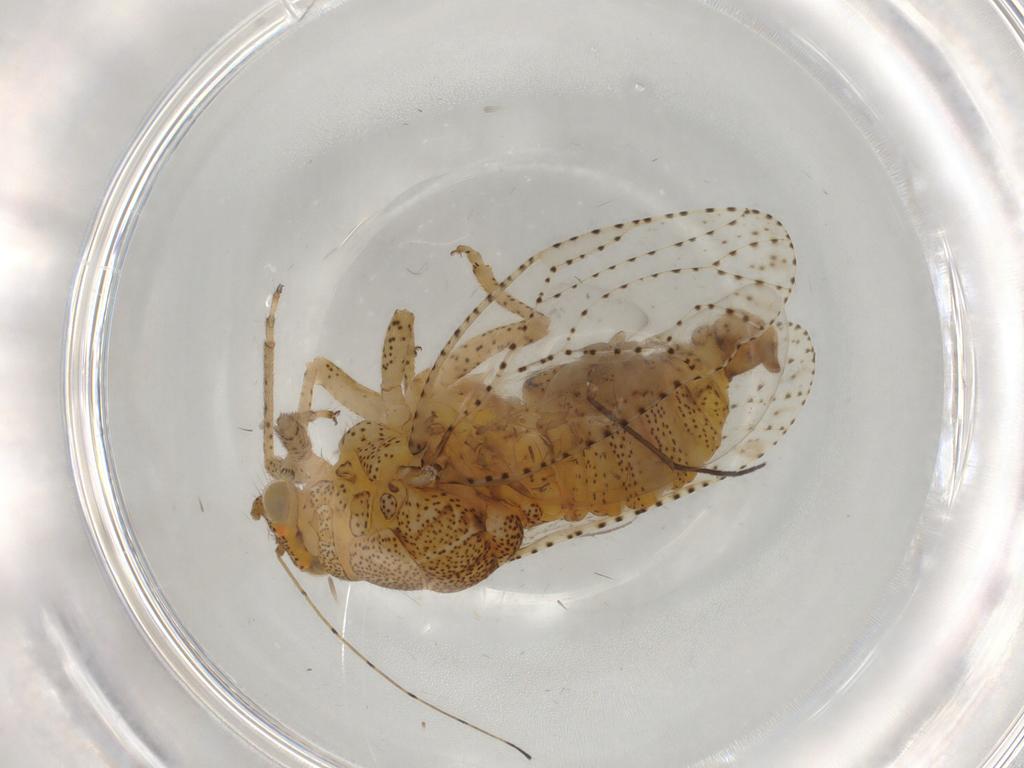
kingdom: Animalia
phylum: Arthropoda
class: Insecta
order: Hemiptera
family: Psyllidae
